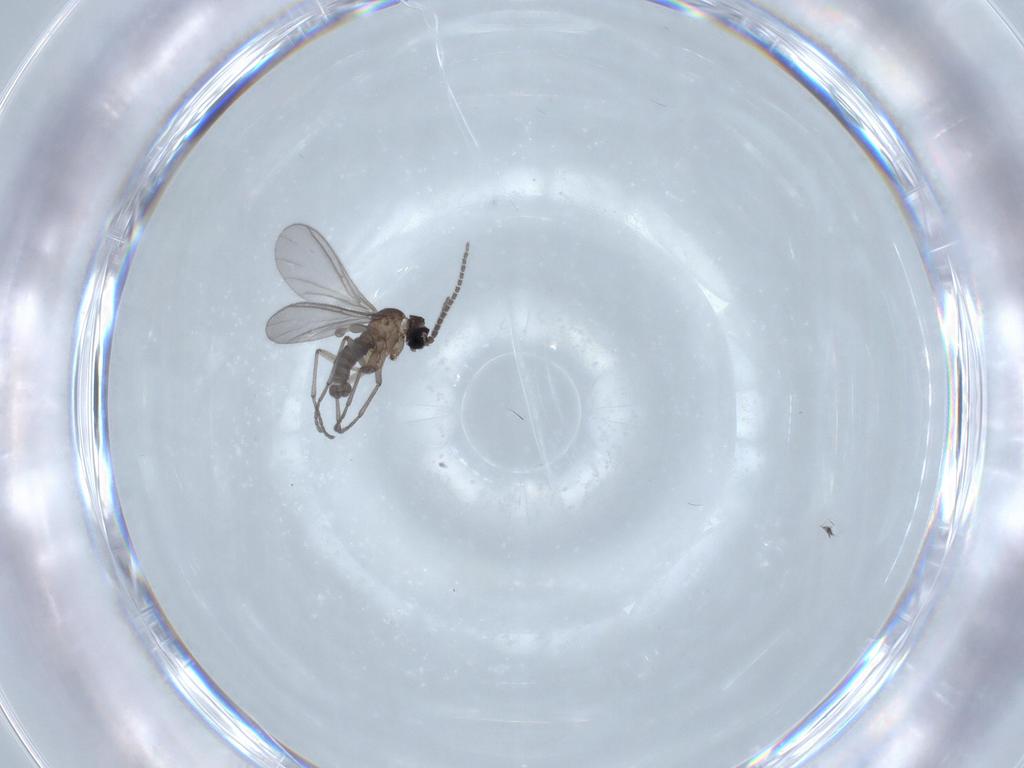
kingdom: Animalia
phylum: Arthropoda
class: Insecta
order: Diptera
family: Sciaridae
